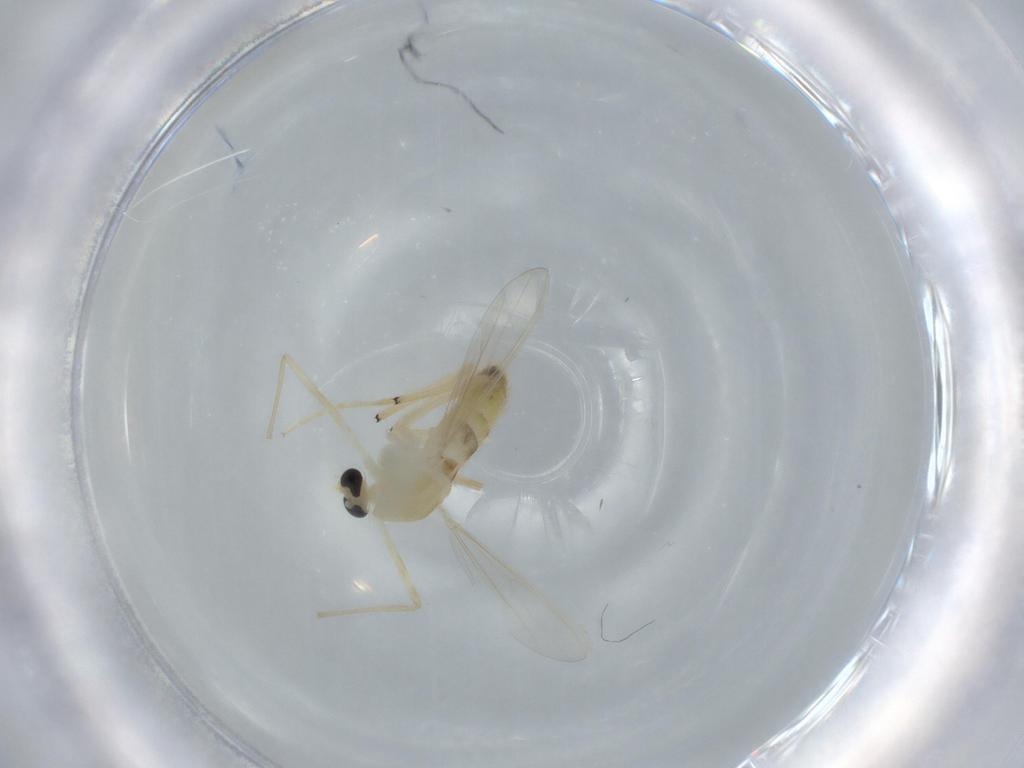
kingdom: Animalia
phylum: Arthropoda
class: Insecta
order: Diptera
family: Chironomidae
